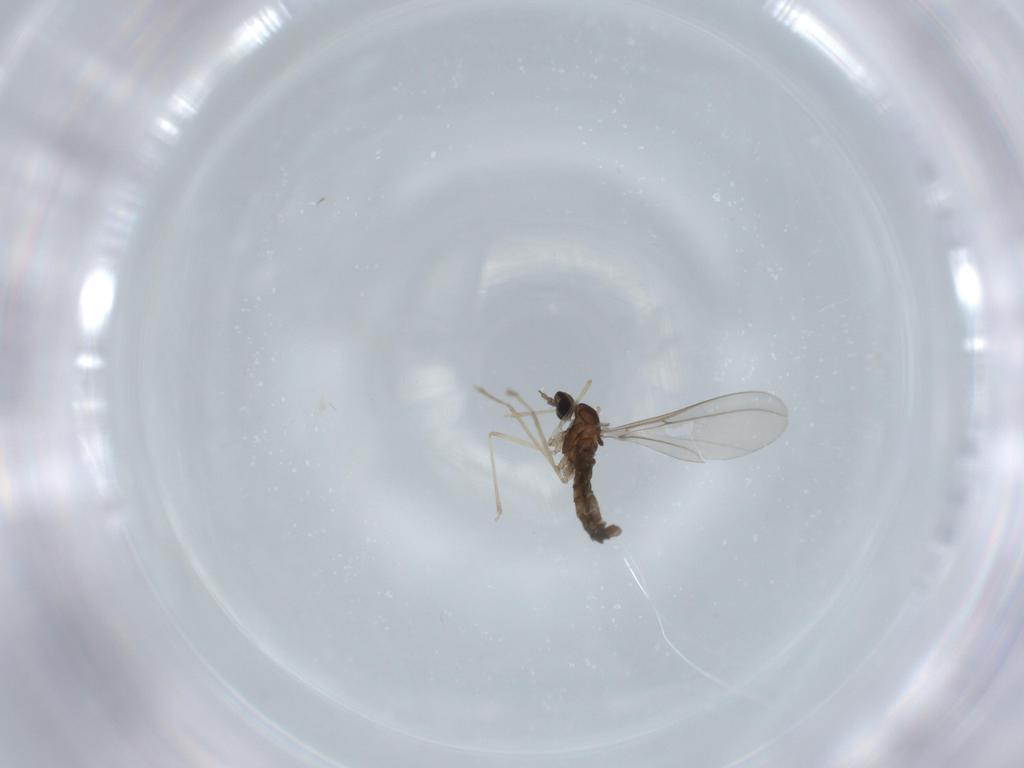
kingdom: Animalia
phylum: Arthropoda
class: Insecta
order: Diptera
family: Cecidomyiidae
